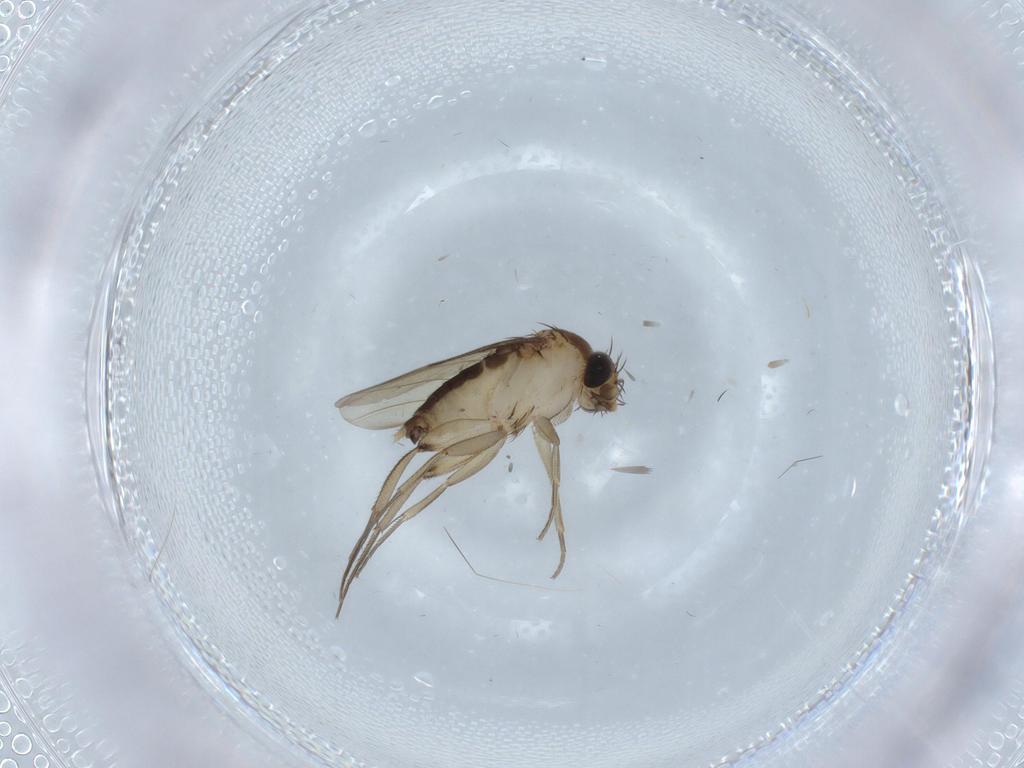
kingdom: Animalia
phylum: Arthropoda
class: Insecta
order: Diptera
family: Phoridae
